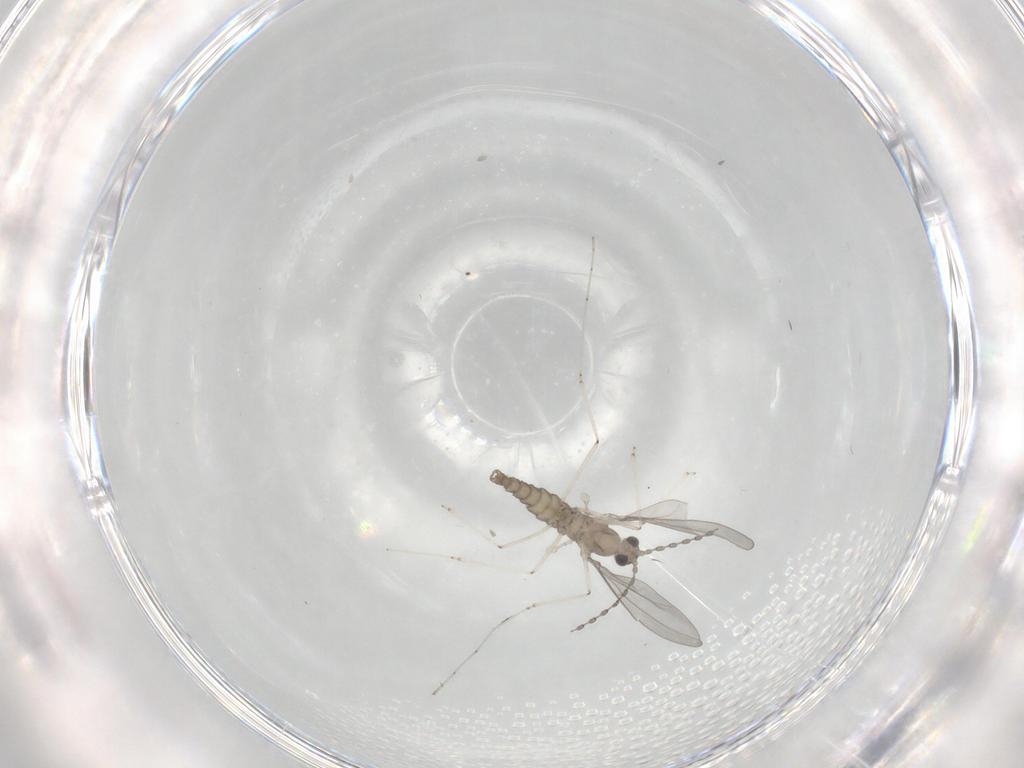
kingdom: Animalia
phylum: Arthropoda
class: Insecta
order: Diptera
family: Cecidomyiidae
